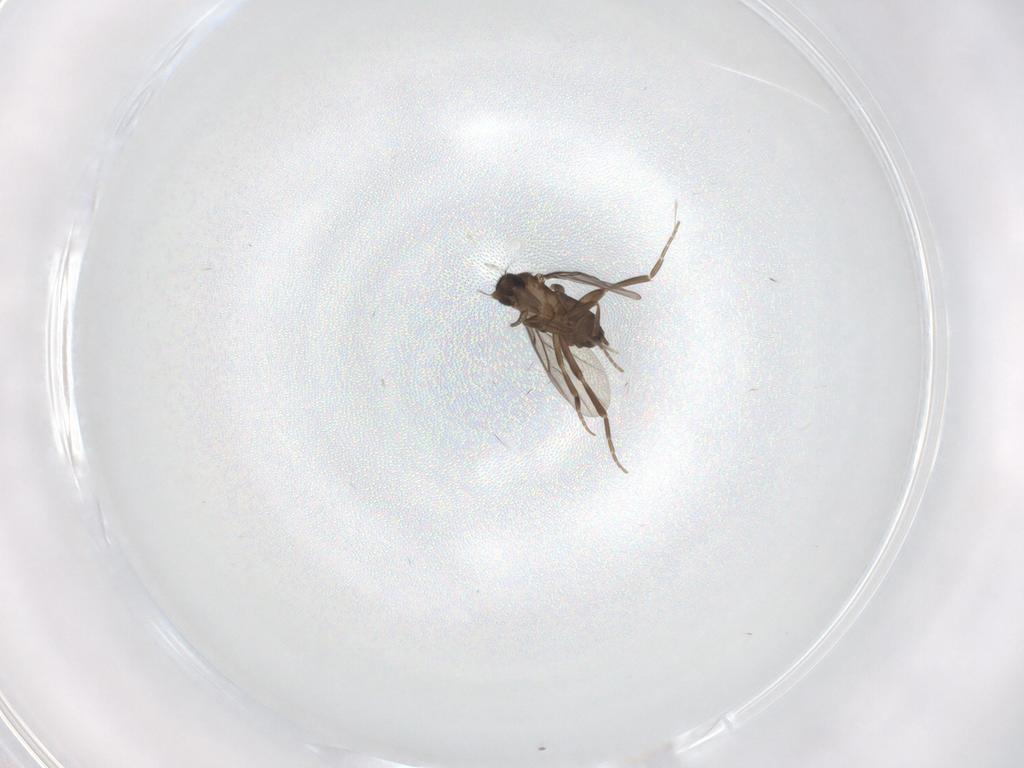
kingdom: Animalia
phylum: Arthropoda
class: Insecta
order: Diptera
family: Chironomidae
